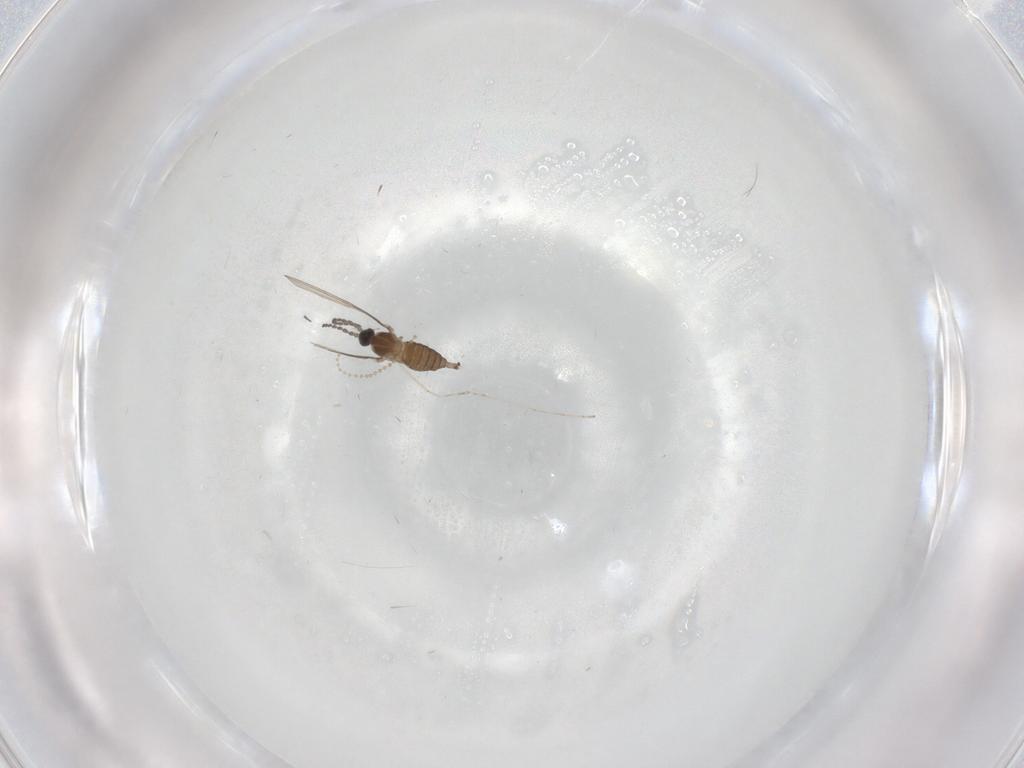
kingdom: Animalia
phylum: Arthropoda
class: Insecta
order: Diptera
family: Cecidomyiidae
